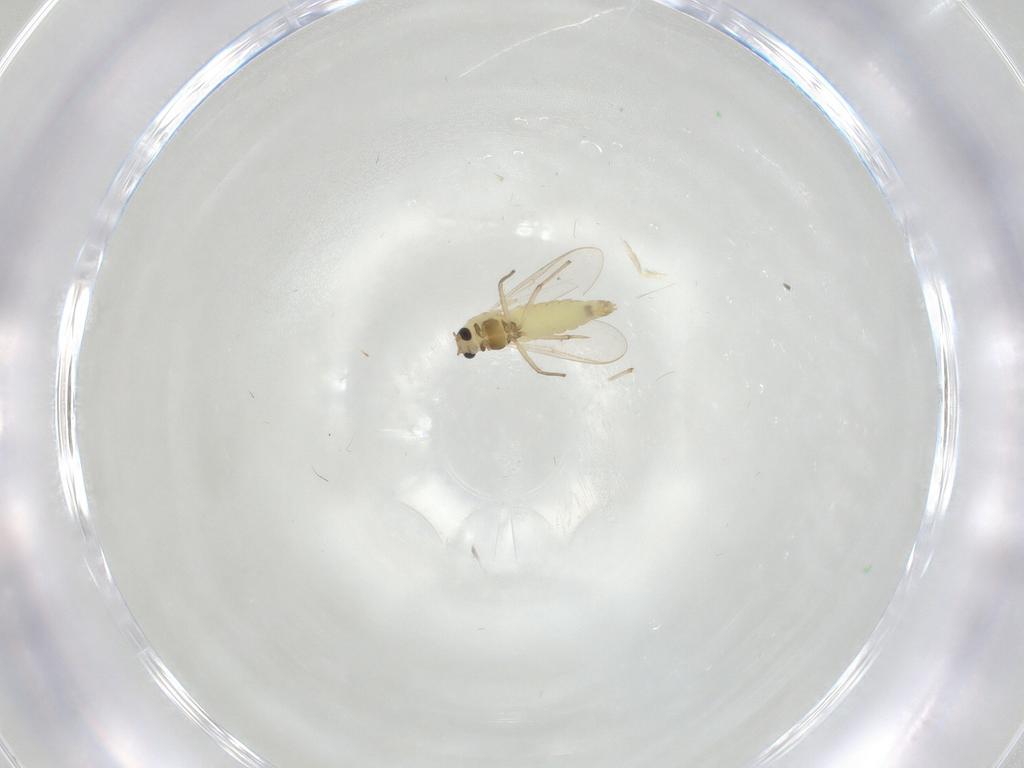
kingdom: Animalia
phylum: Arthropoda
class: Insecta
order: Diptera
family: Chironomidae
